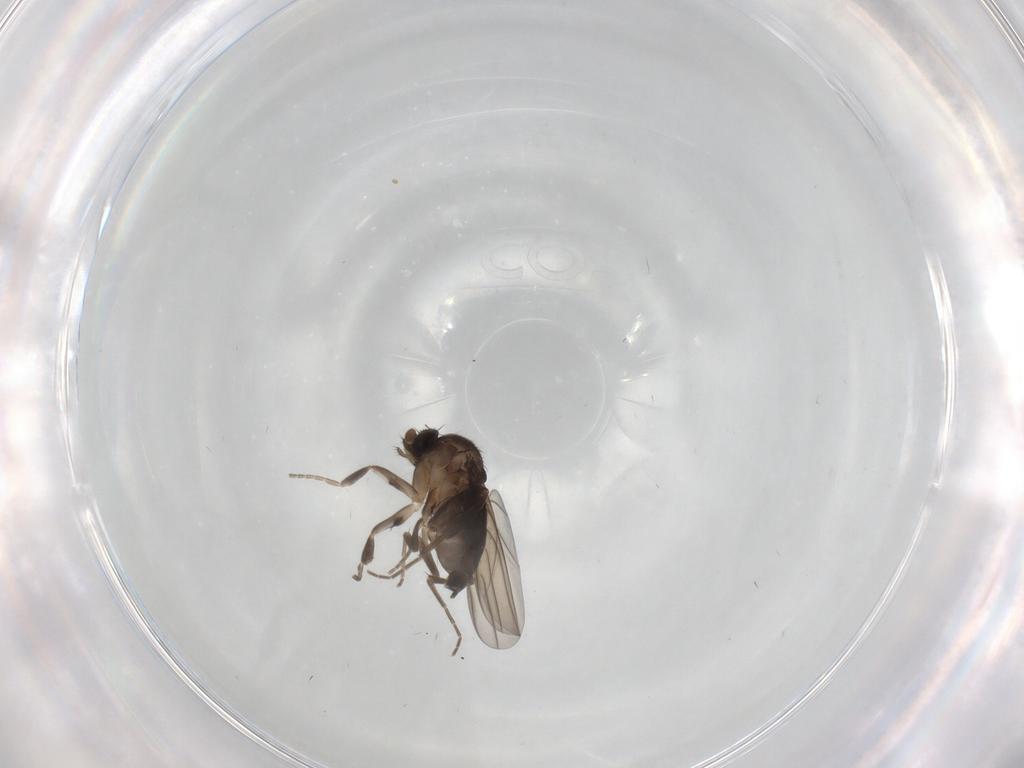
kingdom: Animalia
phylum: Arthropoda
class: Insecta
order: Diptera
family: Phoridae
